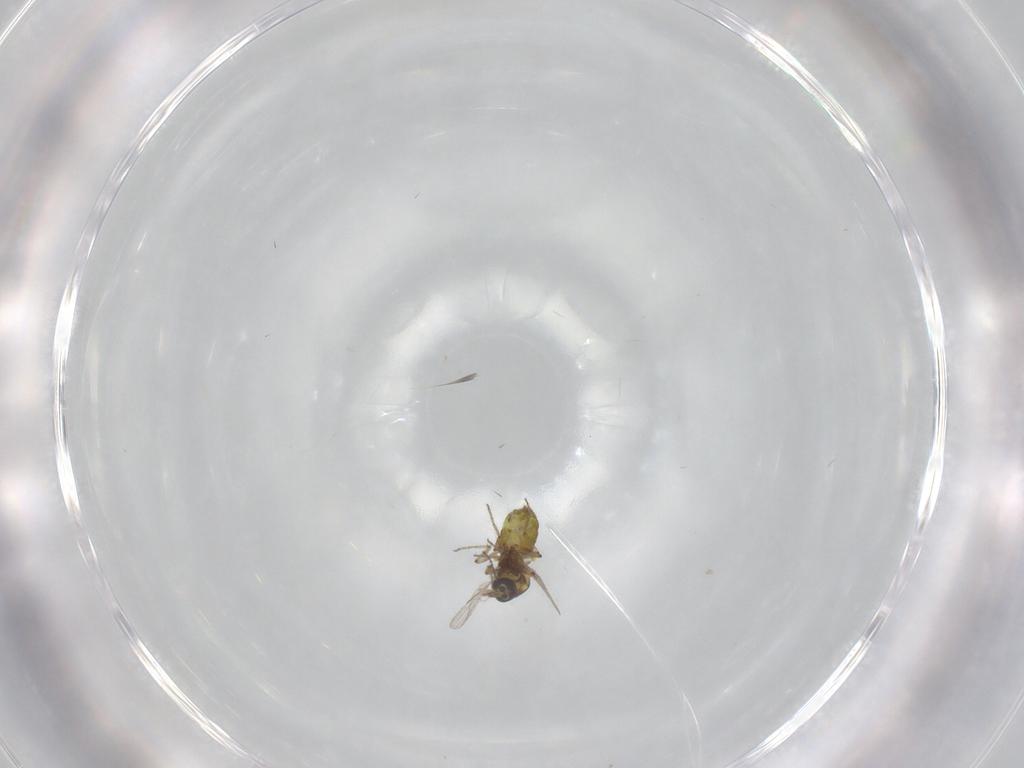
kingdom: Animalia
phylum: Arthropoda
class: Insecta
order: Diptera
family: Ceratopogonidae
